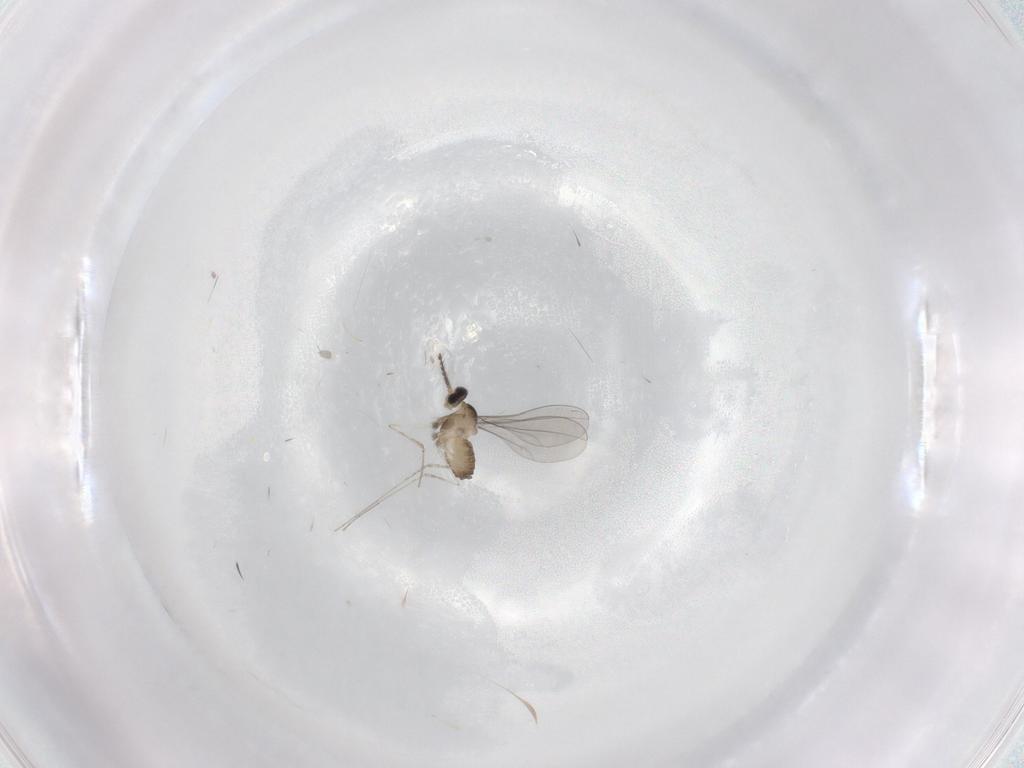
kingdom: Animalia
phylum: Arthropoda
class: Insecta
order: Diptera
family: Cecidomyiidae
